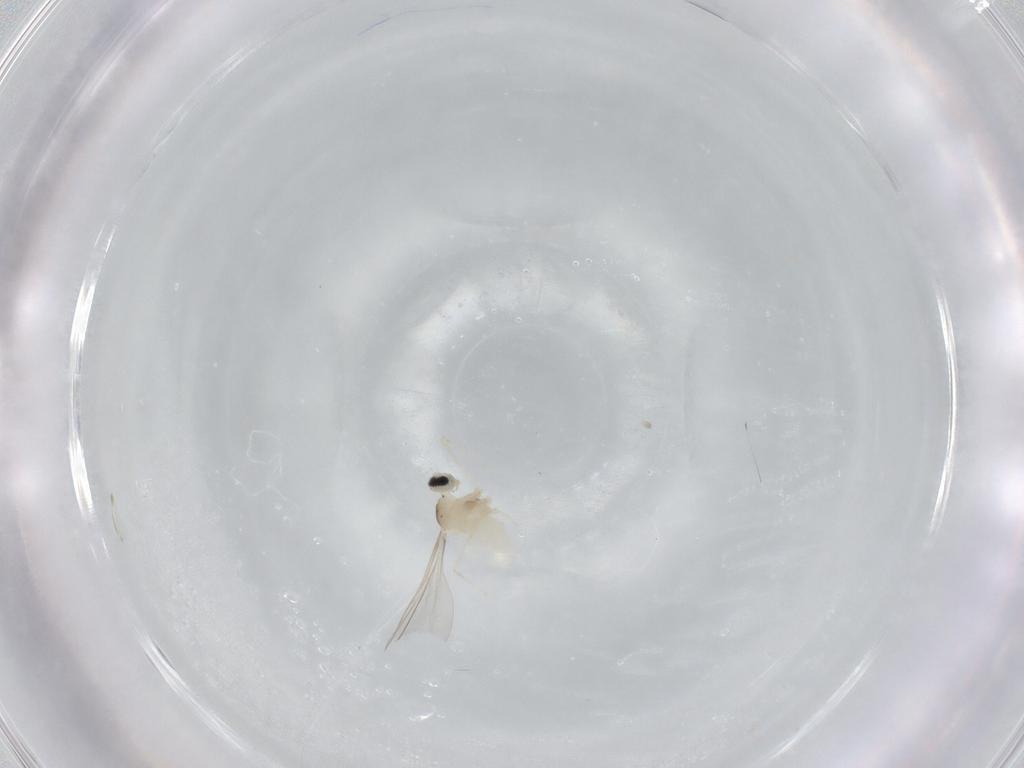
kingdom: Animalia
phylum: Arthropoda
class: Insecta
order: Diptera
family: Cecidomyiidae
